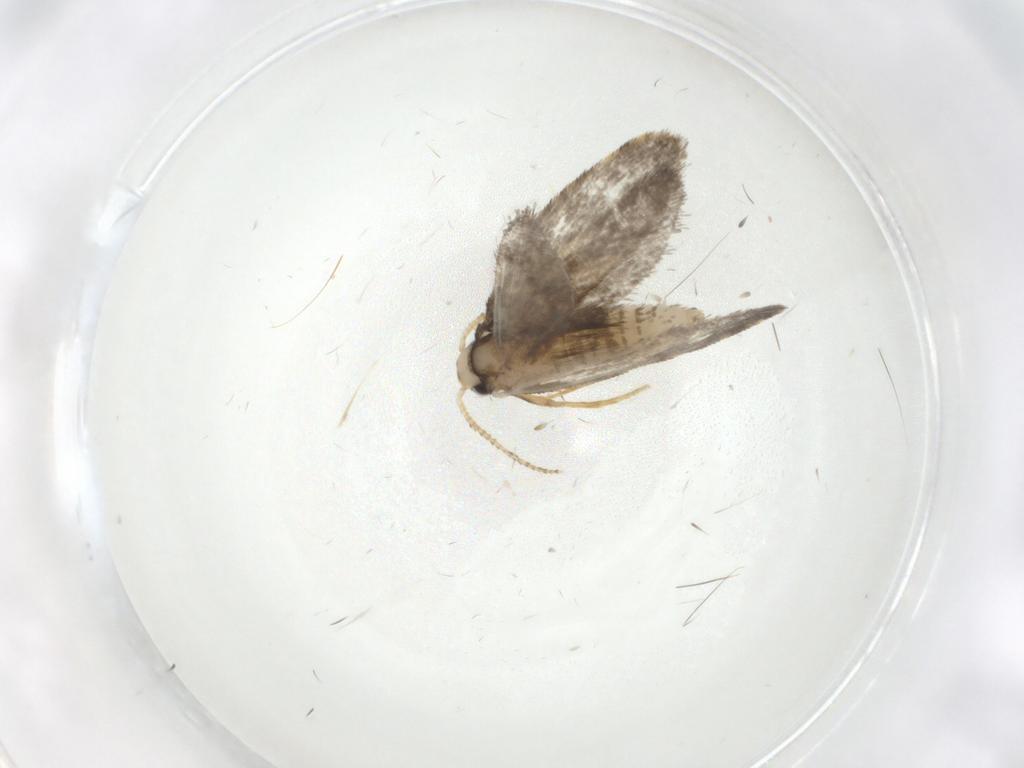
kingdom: Animalia
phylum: Arthropoda
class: Insecta
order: Lepidoptera
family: Psychidae
